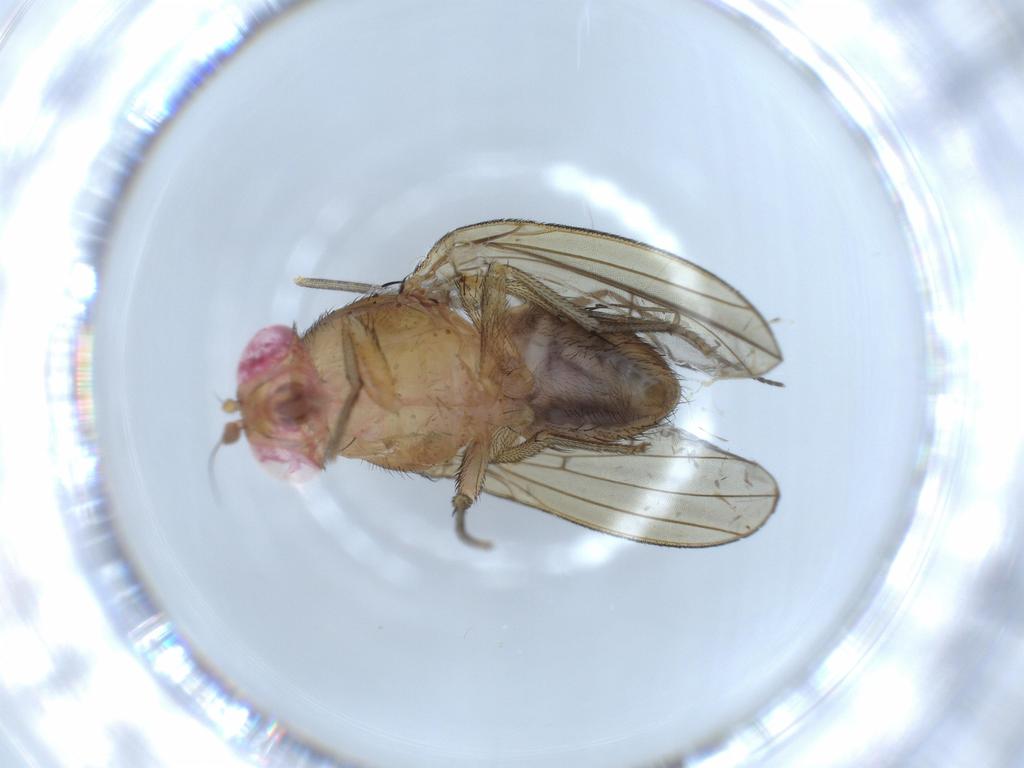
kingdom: Animalia
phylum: Arthropoda
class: Insecta
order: Diptera
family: Mycetophilidae
